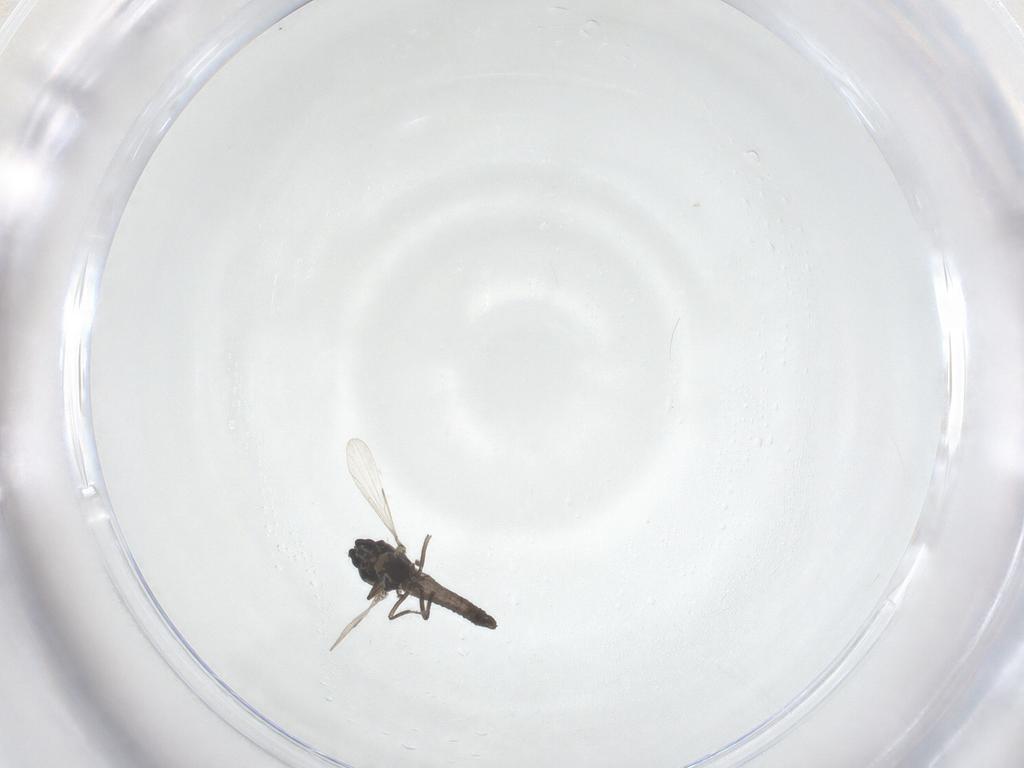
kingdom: Animalia
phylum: Arthropoda
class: Insecta
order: Diptera
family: Ceratopogonidae
